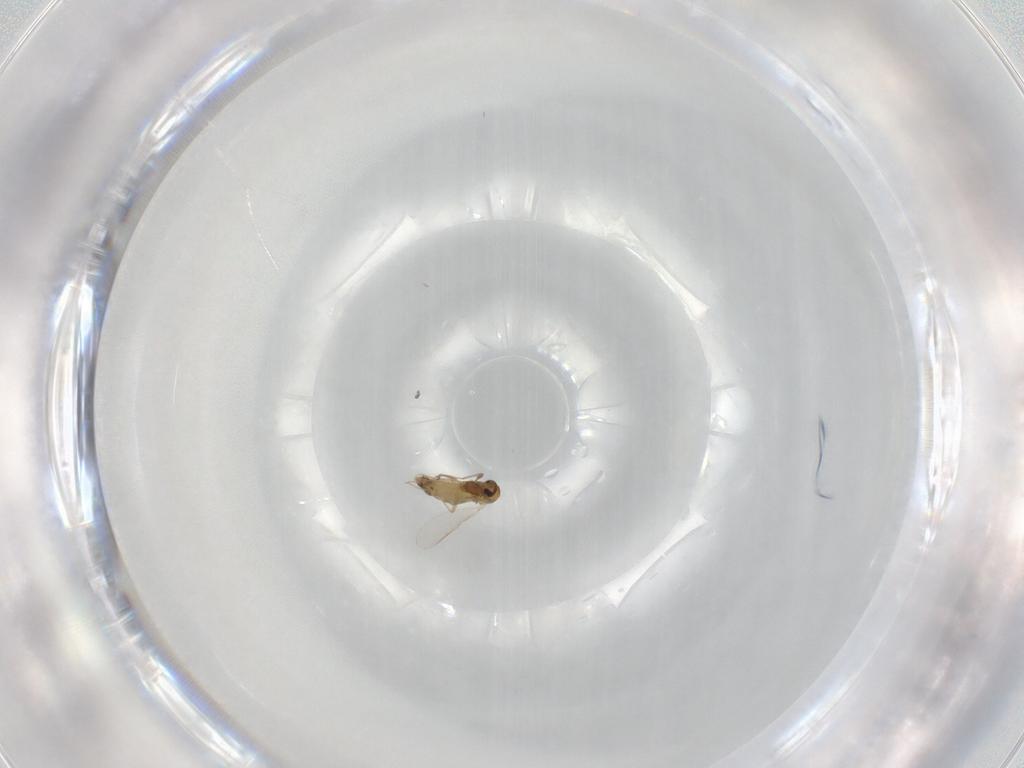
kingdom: Animalia
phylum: Arthropoda
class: Insecta
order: Diptera
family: Chironomidae
